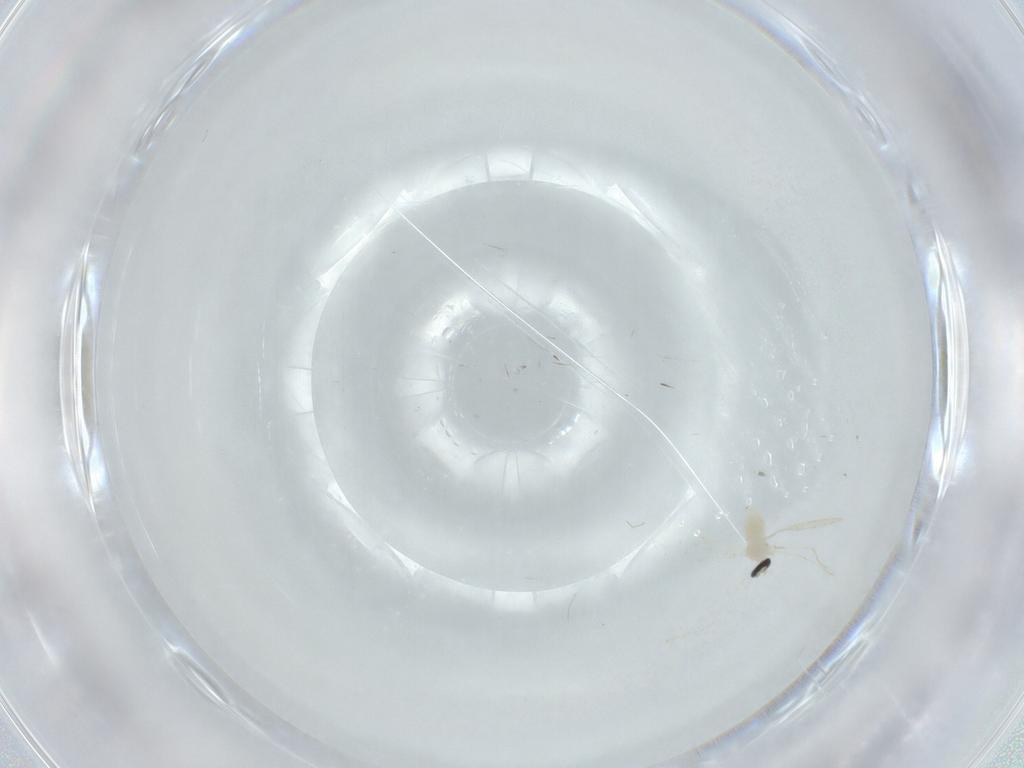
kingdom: Animalia
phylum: Arthropoda
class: Insecta
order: Diptera
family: Cecidomyiidae
